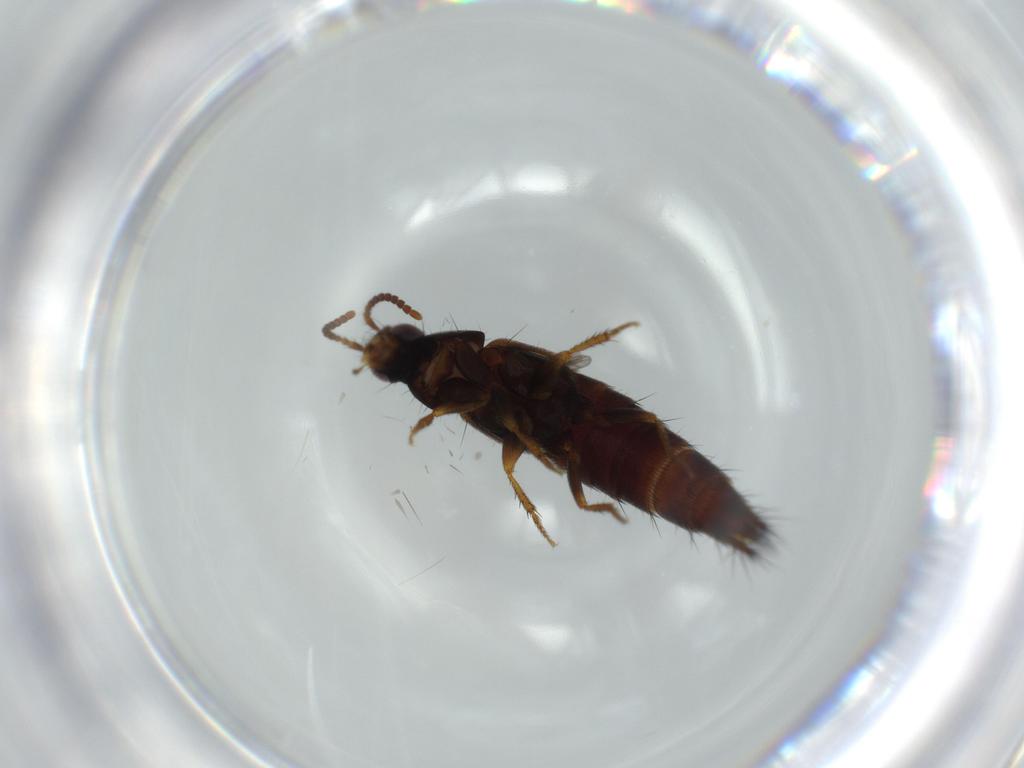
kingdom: Animalia
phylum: Arthropoda
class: Insecta
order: Coleoptera
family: Staphylinidae
